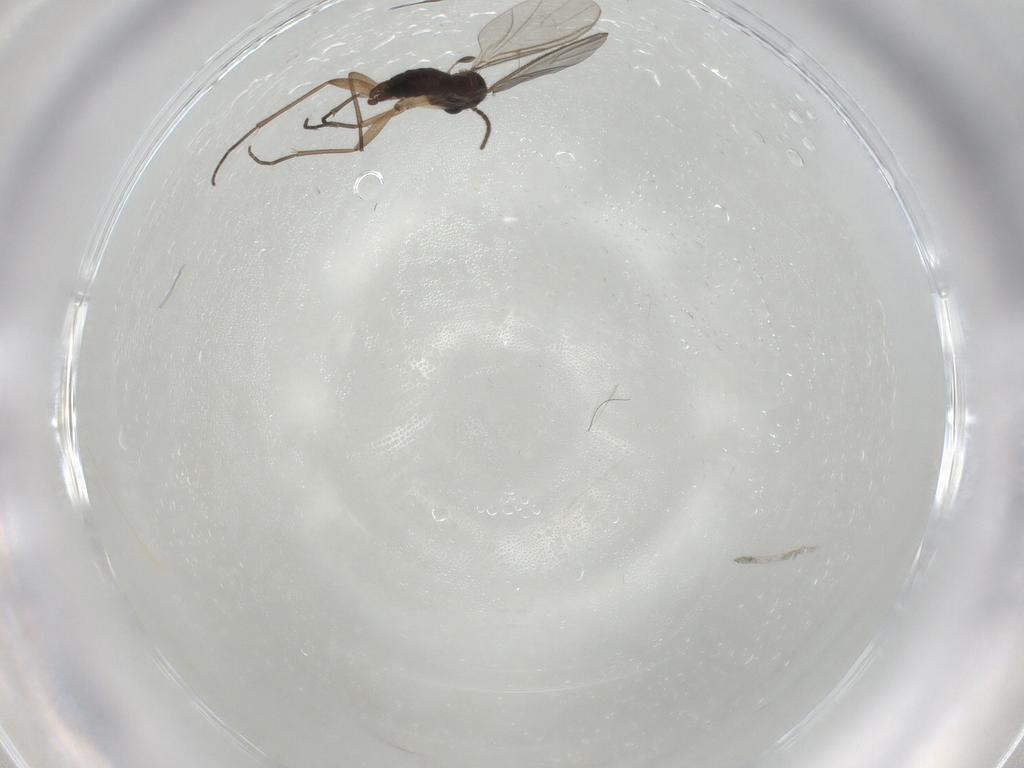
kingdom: Animalia
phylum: Arthropoda
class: Insecta
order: Diptera
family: Sciaridae
